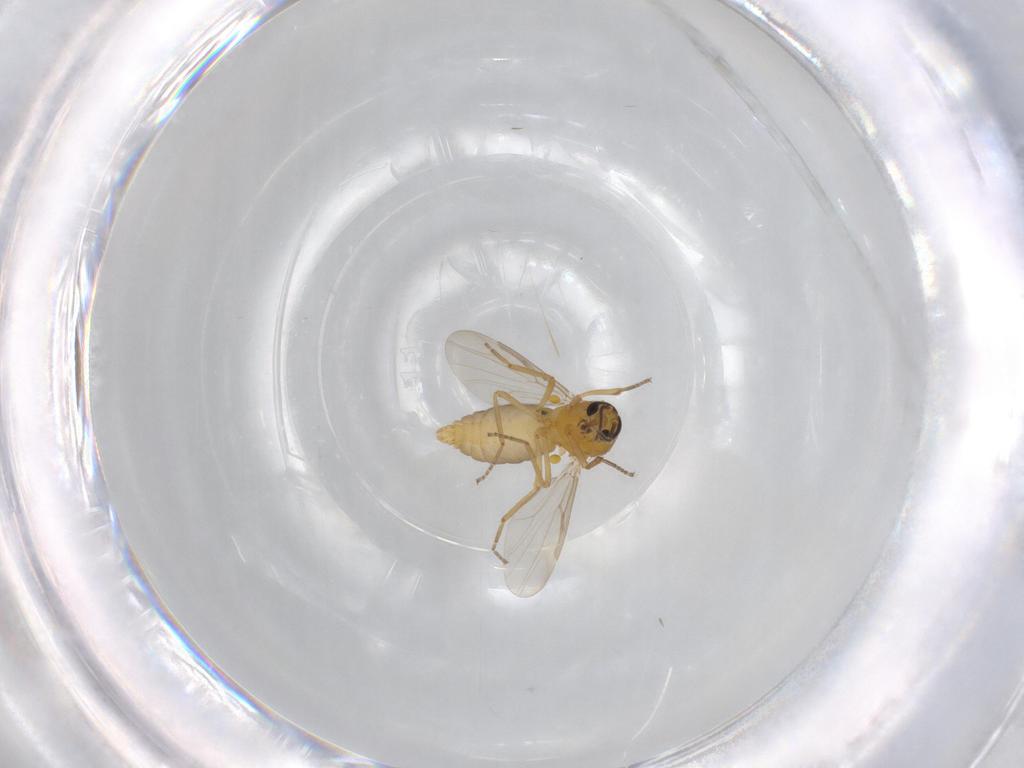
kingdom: Animalia
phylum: Arthropoda
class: Insecta
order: Diptera
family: Ceratopogonidae
